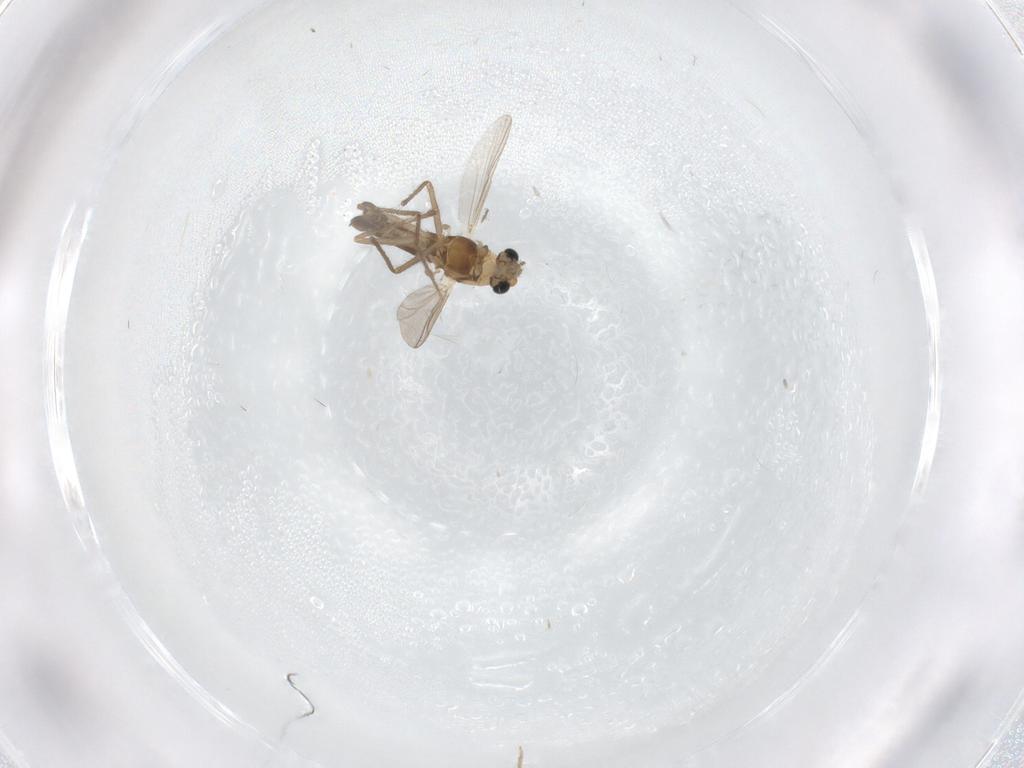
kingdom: Animalia
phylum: Arthropoda
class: Insecta
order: Diptera
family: Chironomidae
